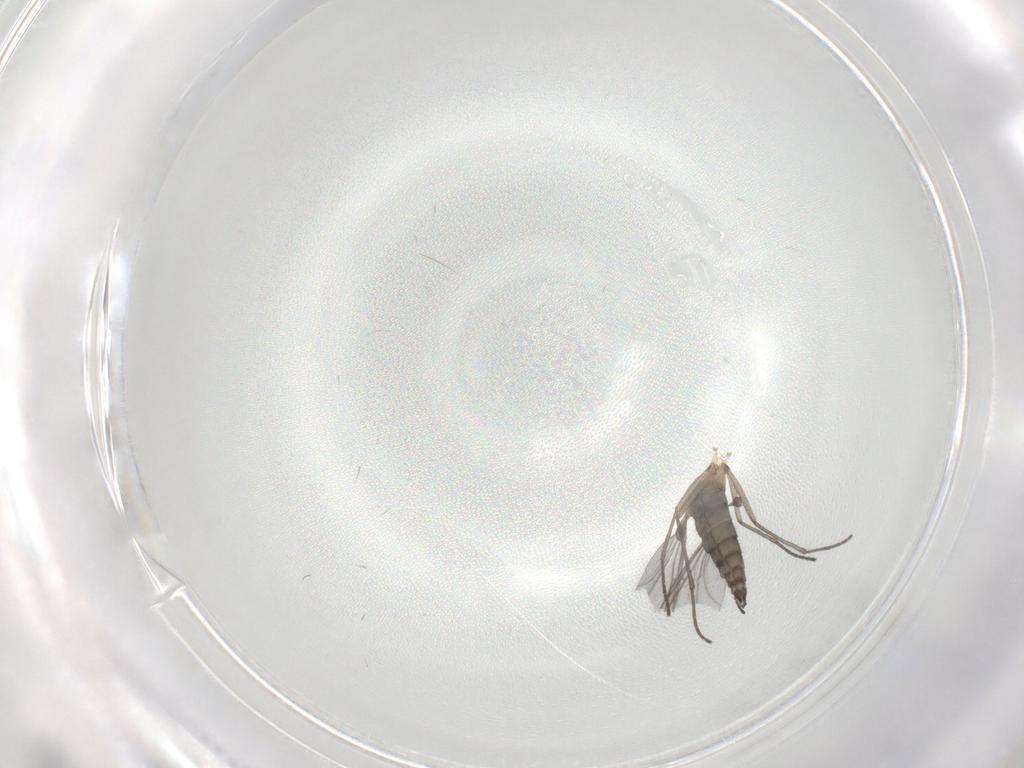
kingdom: Animalia
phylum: Arthropoda
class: Insecta
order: Diptera
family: Sciaridae
